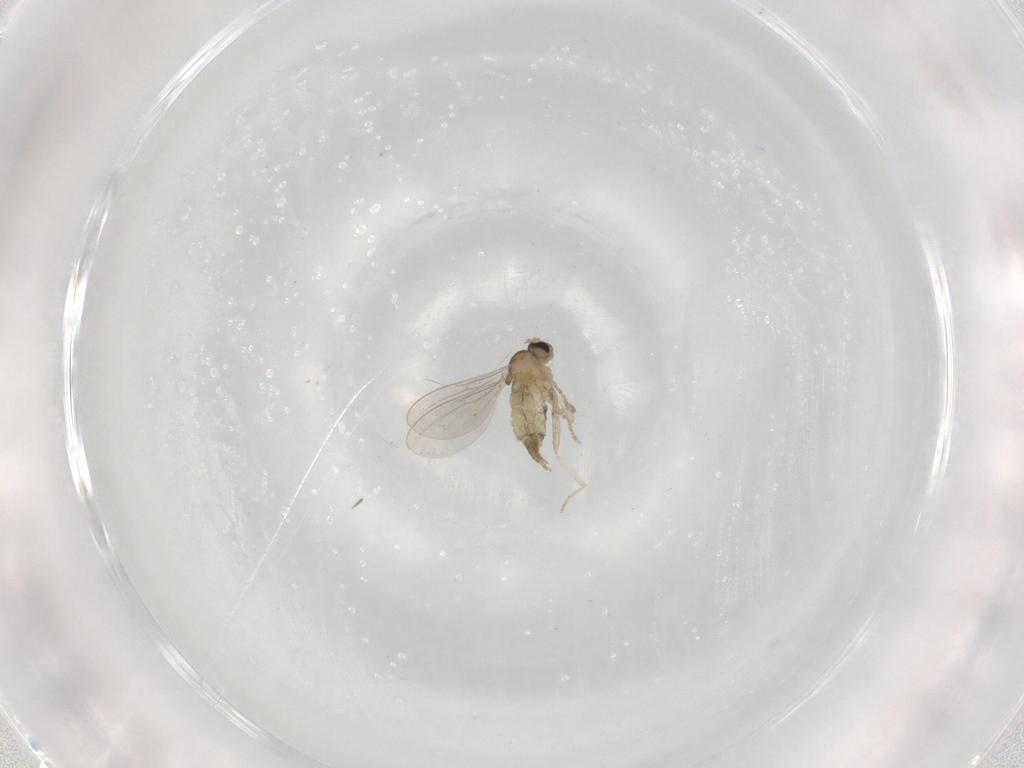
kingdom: Animalia
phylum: Arthropoda
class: Insecta
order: Diptera
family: Cecidomyiidae
